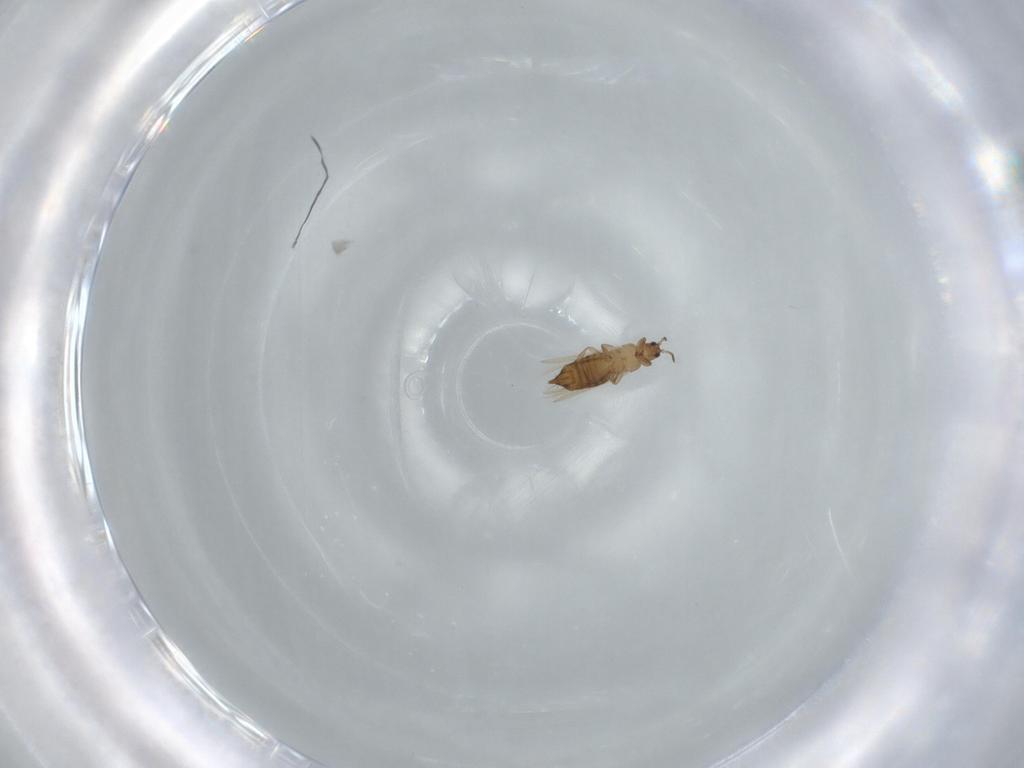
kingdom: Animalia
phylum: Arthropoda
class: Insecta
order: Thysanoptera
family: Thripidae
